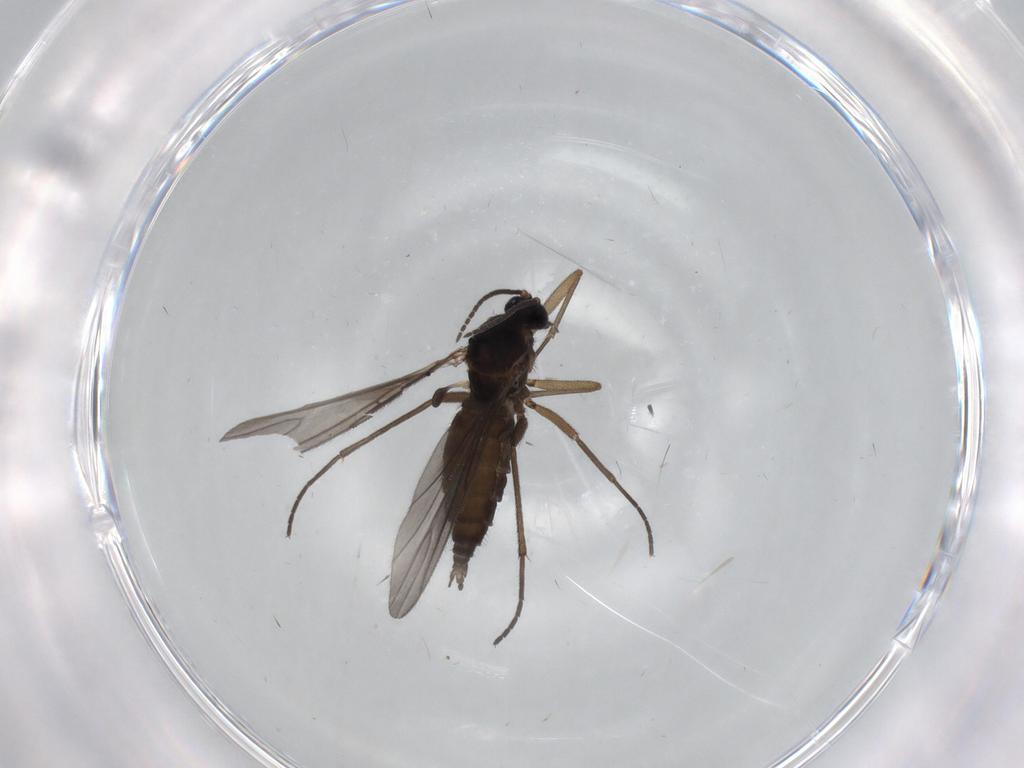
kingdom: Animalia
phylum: Arthropoda
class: Insecta
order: Diptera
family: Sciaridae
